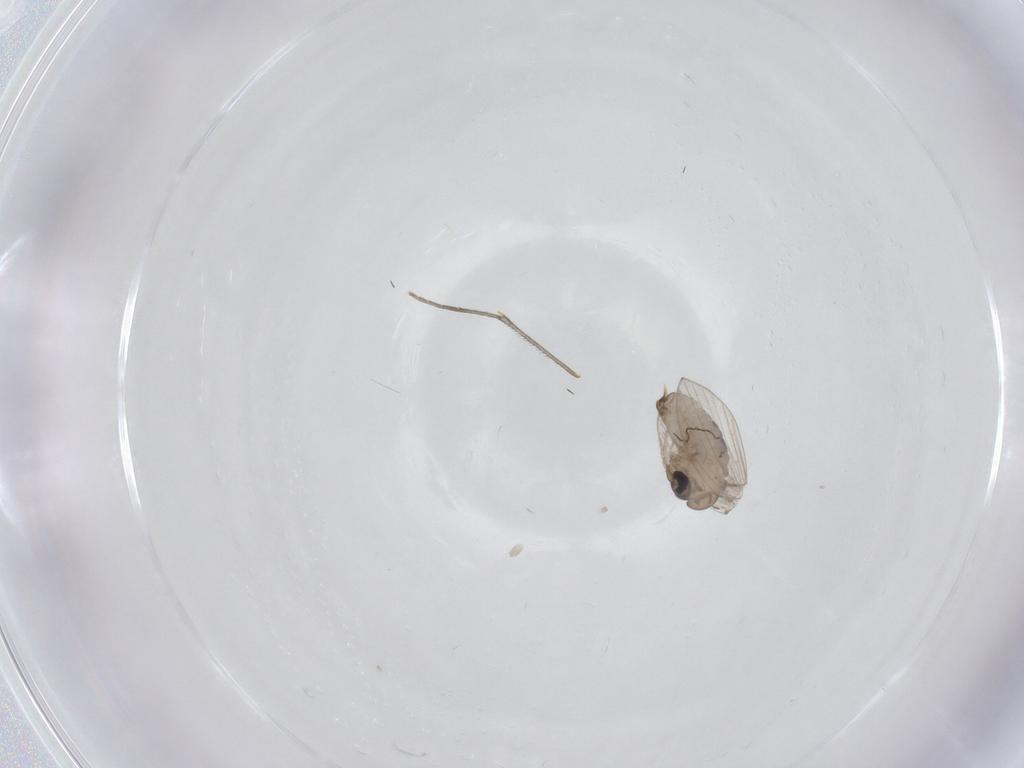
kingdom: Animalia
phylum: Arthropoda
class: Insecta
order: Diptera
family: Psychodidae
